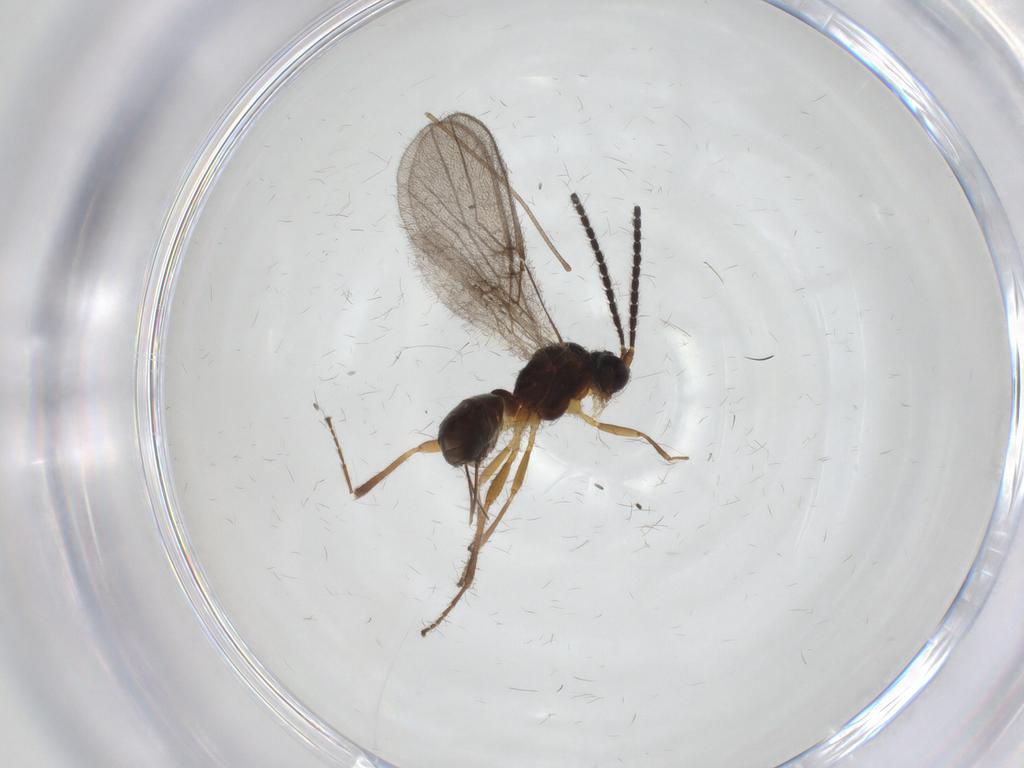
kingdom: Animalia
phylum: Arthropoda
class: Insecta
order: Hymenoptera
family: Braconidae
